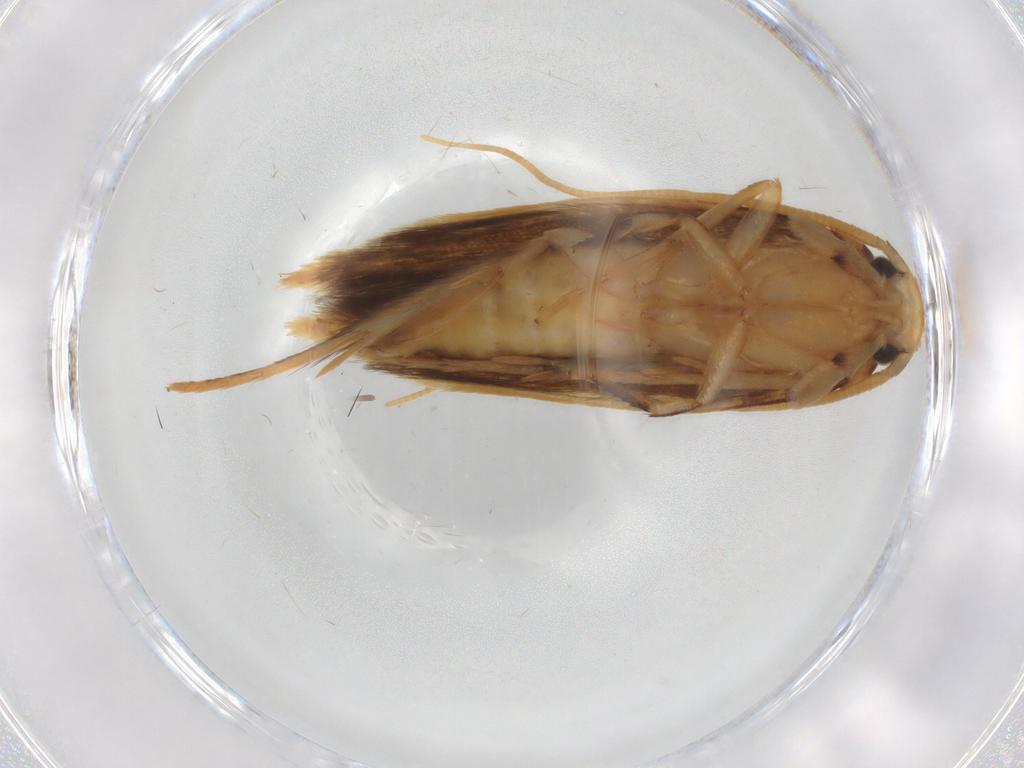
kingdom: Animalia
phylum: Arthropoda
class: Insecta
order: Lepidoptera
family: Tineidae
